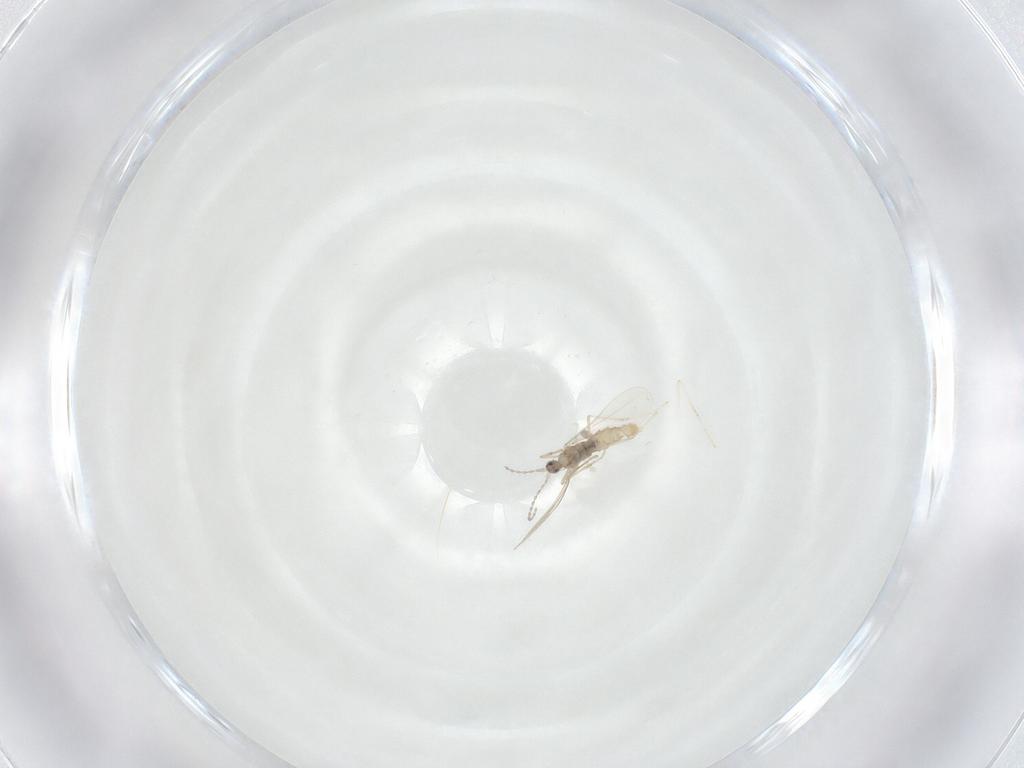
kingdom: Animalia
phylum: Arthropoda
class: Insecta
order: Diptera
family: Cecidomyiidae
